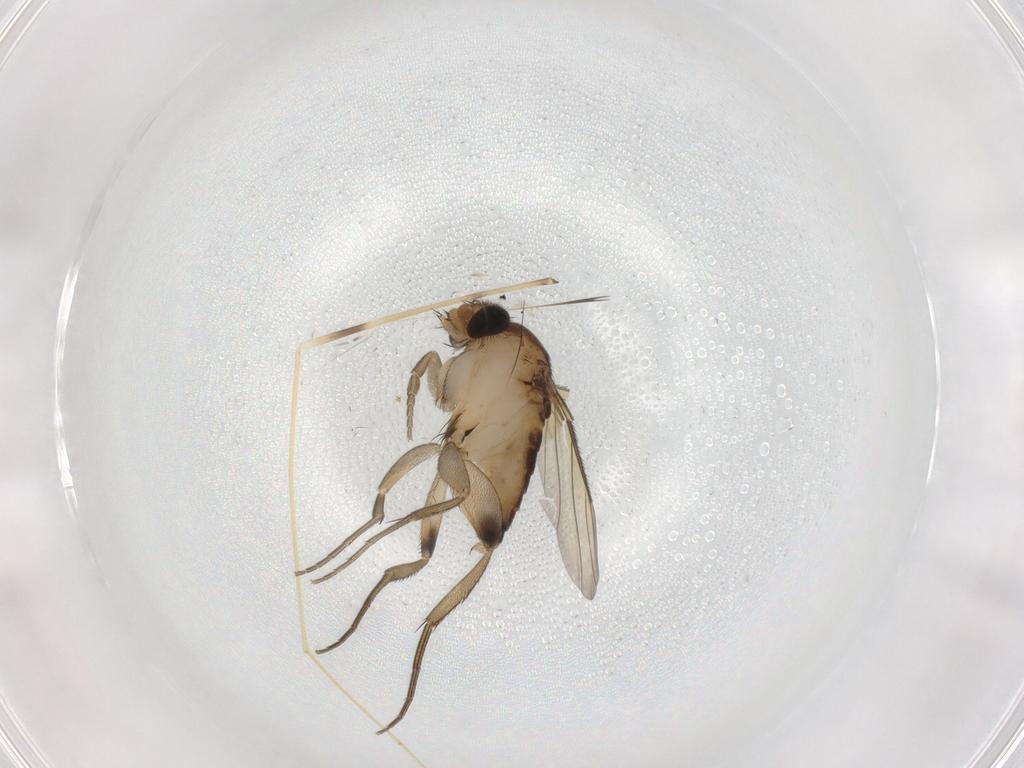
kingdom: Animalia
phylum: Arthropoda
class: Insecta
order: Diptera
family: Phoridae
